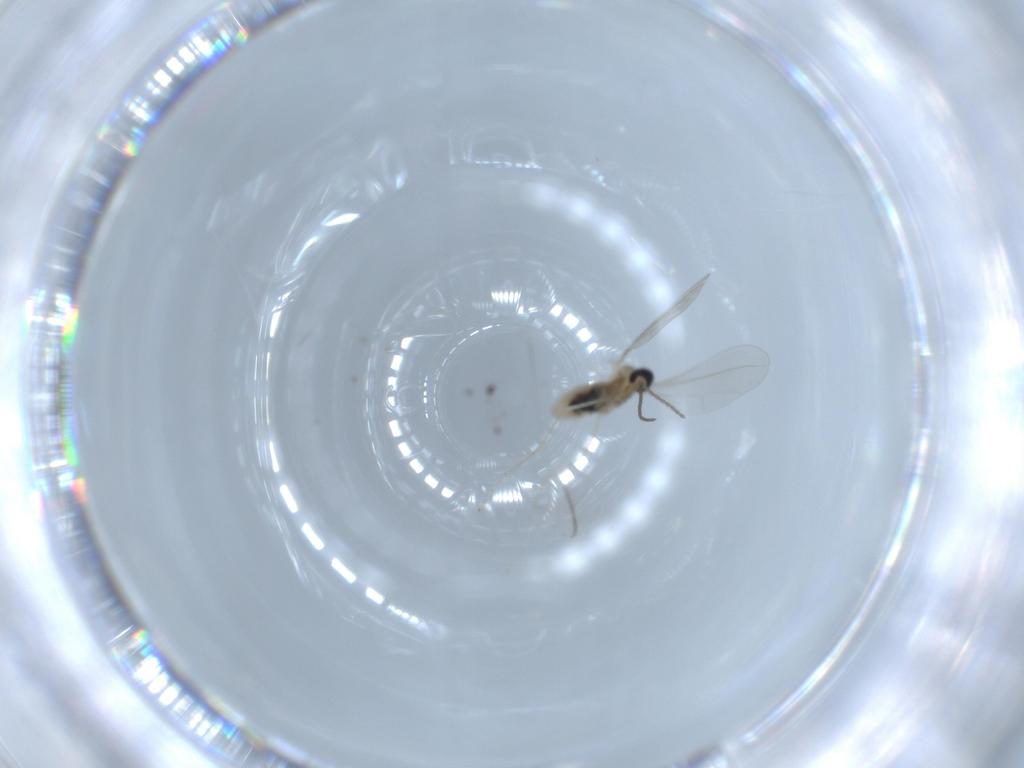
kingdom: Animalia
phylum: Arthropoda
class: Insecta
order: Diptera
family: Cecidomyiidae
